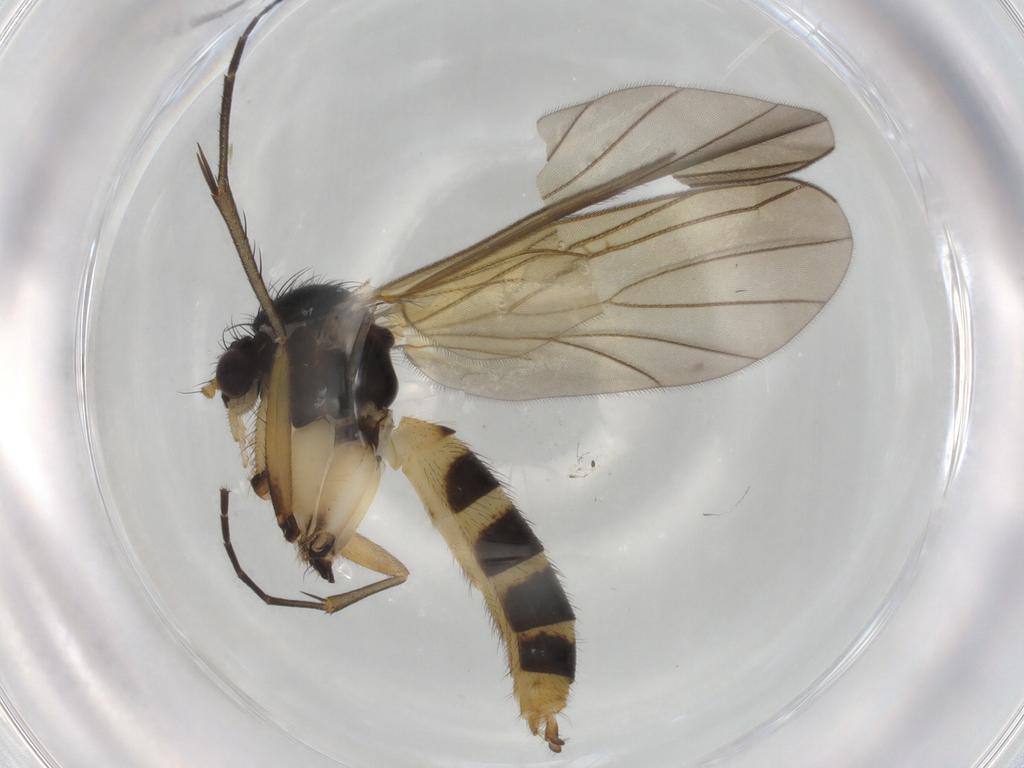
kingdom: Animalia
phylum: Arthropoda
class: Insecta
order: Diptera
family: Mycetophilidae
